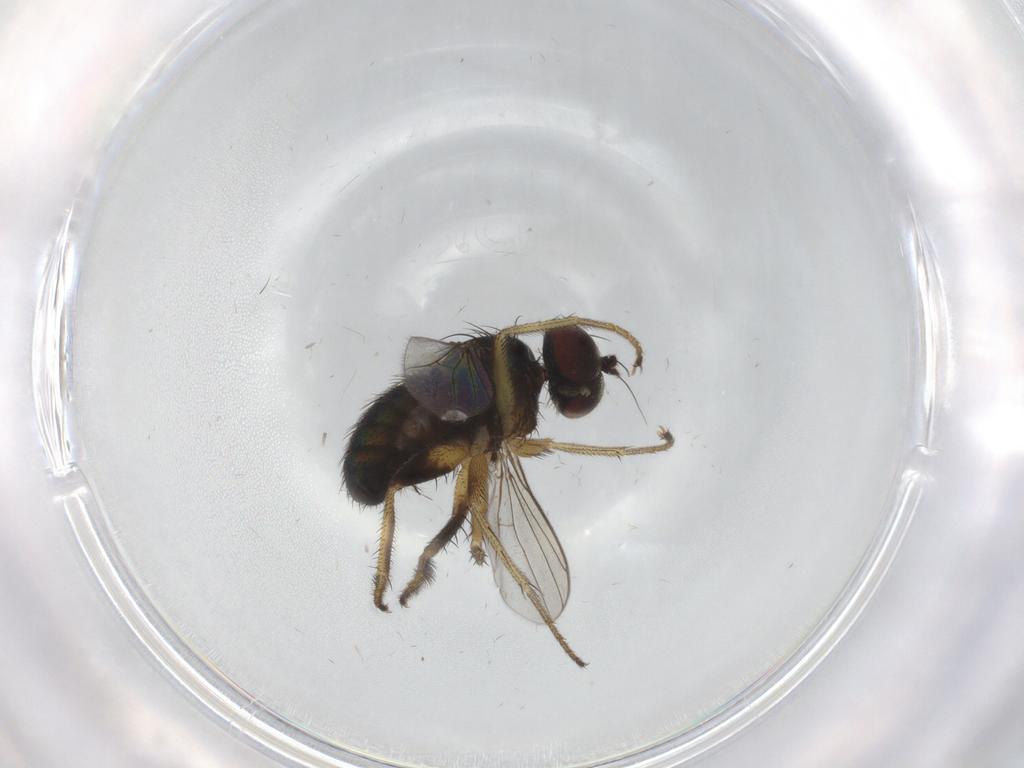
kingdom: Animalia
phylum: Arthropoda
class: Insecta
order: Diptera
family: Dolichopodidae
